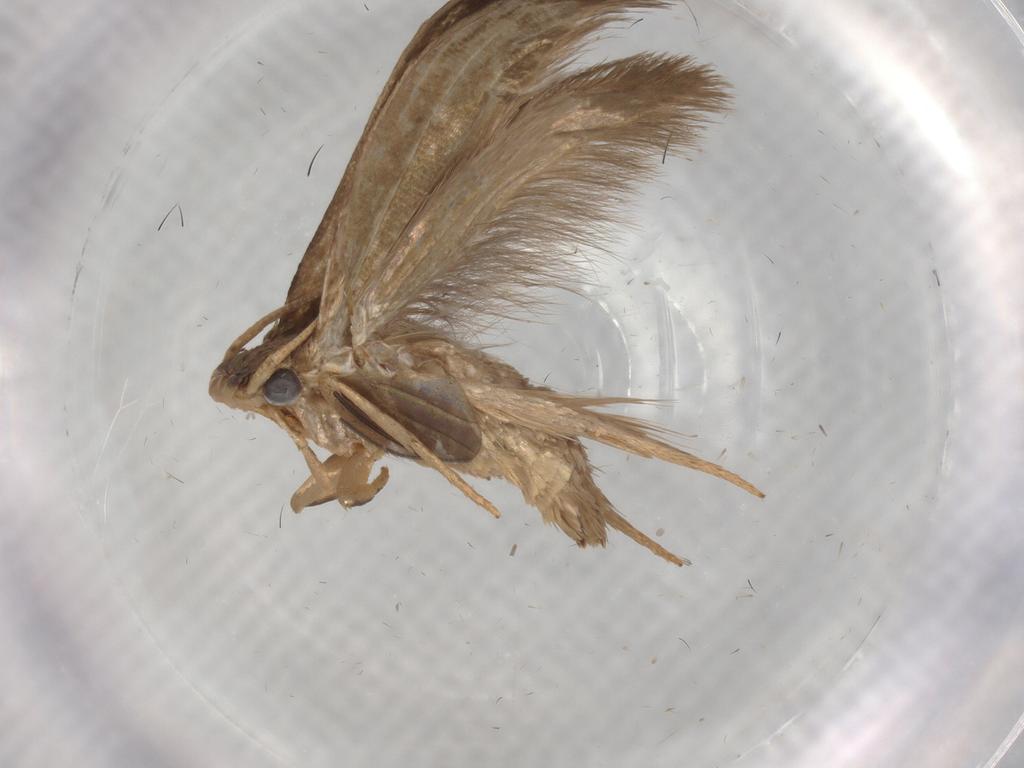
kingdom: Animalia
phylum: Arthropoda
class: Insecta
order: Lepidoptera
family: Tineidae
